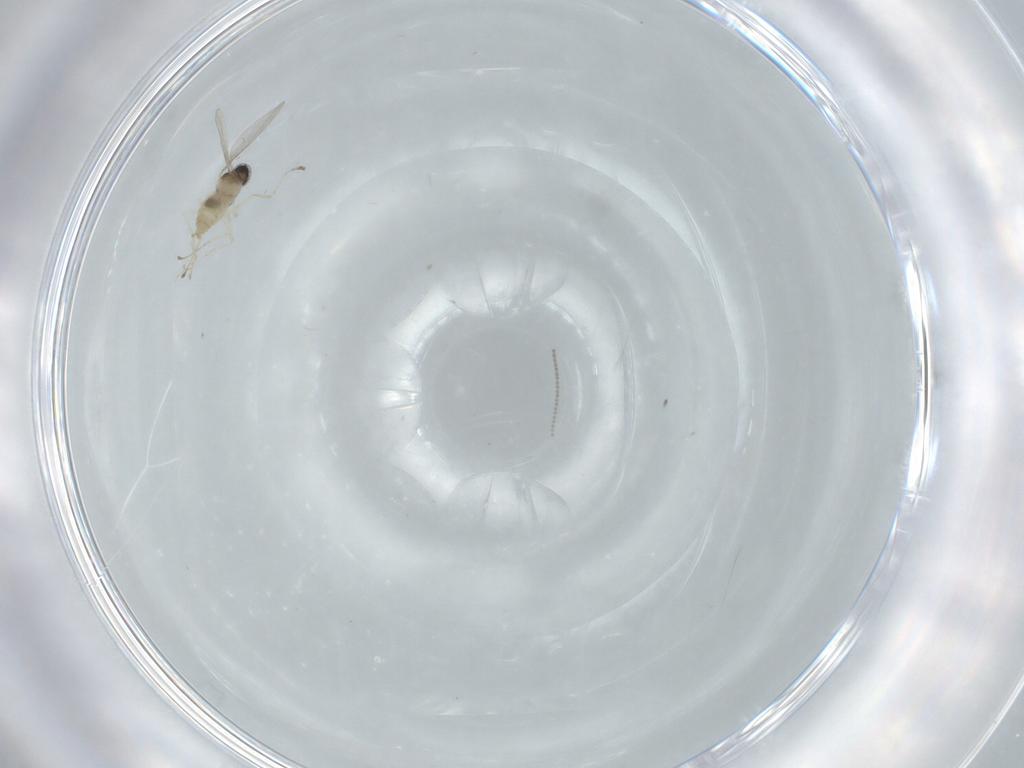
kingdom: Animalia
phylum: Arthropoda
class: Insecta
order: Diptera
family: Cecidomyiidae
